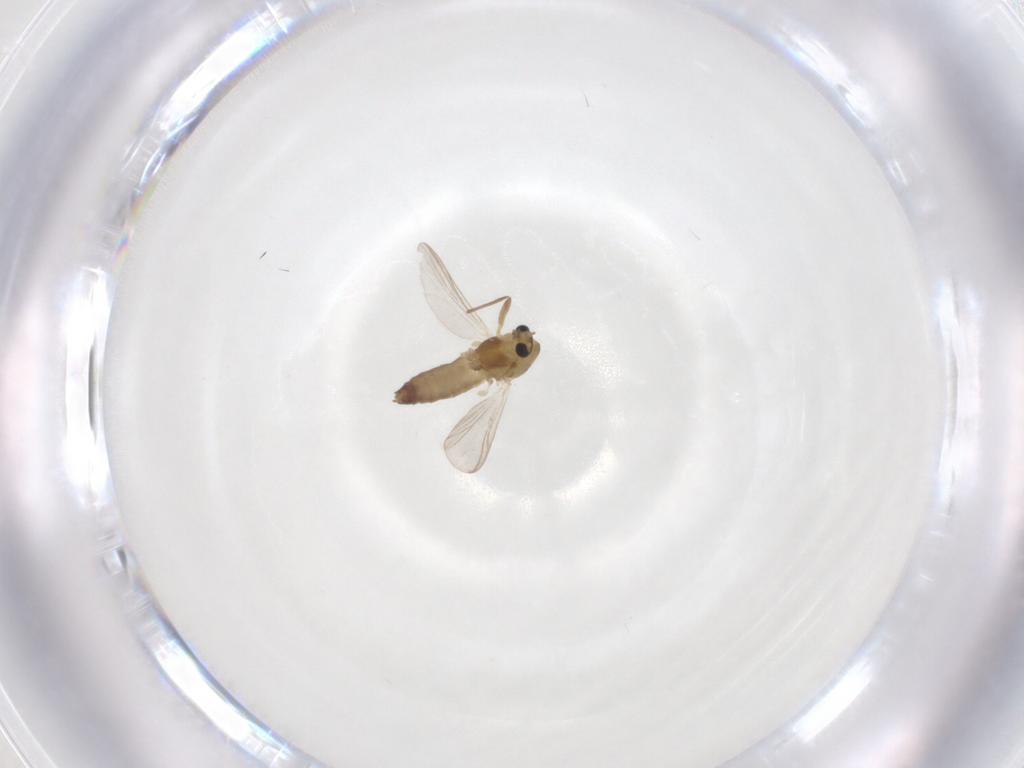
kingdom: Animalia
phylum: Arthropoda
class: Insecta
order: Diptera
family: Chironomidae
